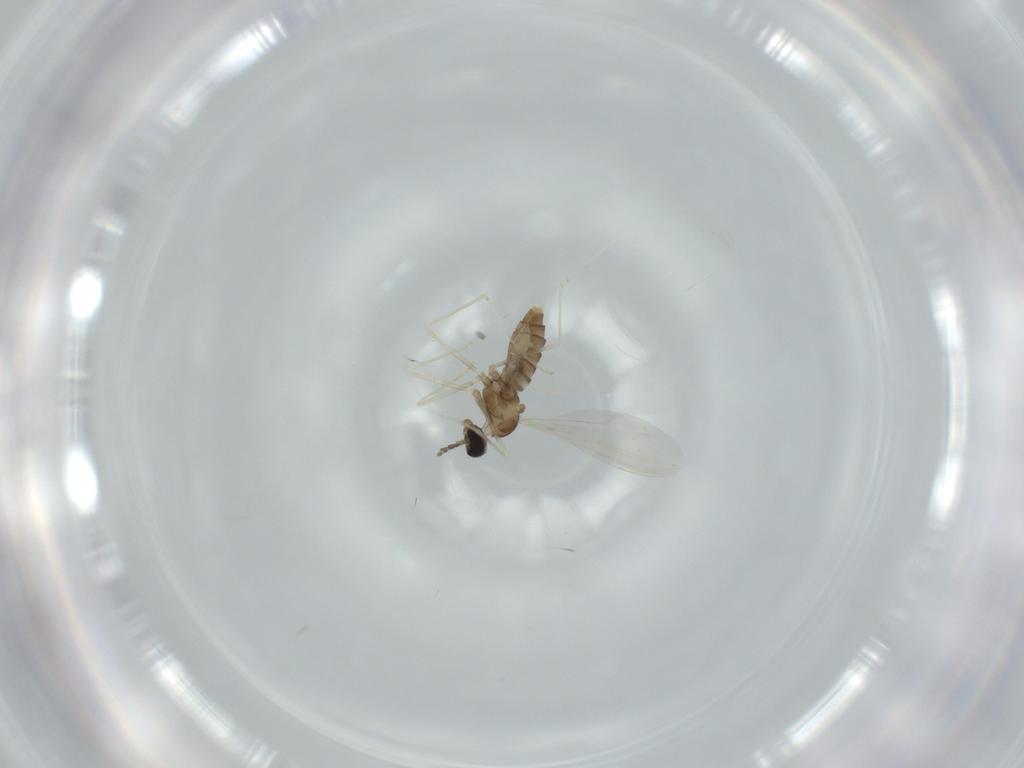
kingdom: Animalia
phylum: Arthropoda
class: Insecta
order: Diptera
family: Cecidomyiidae
